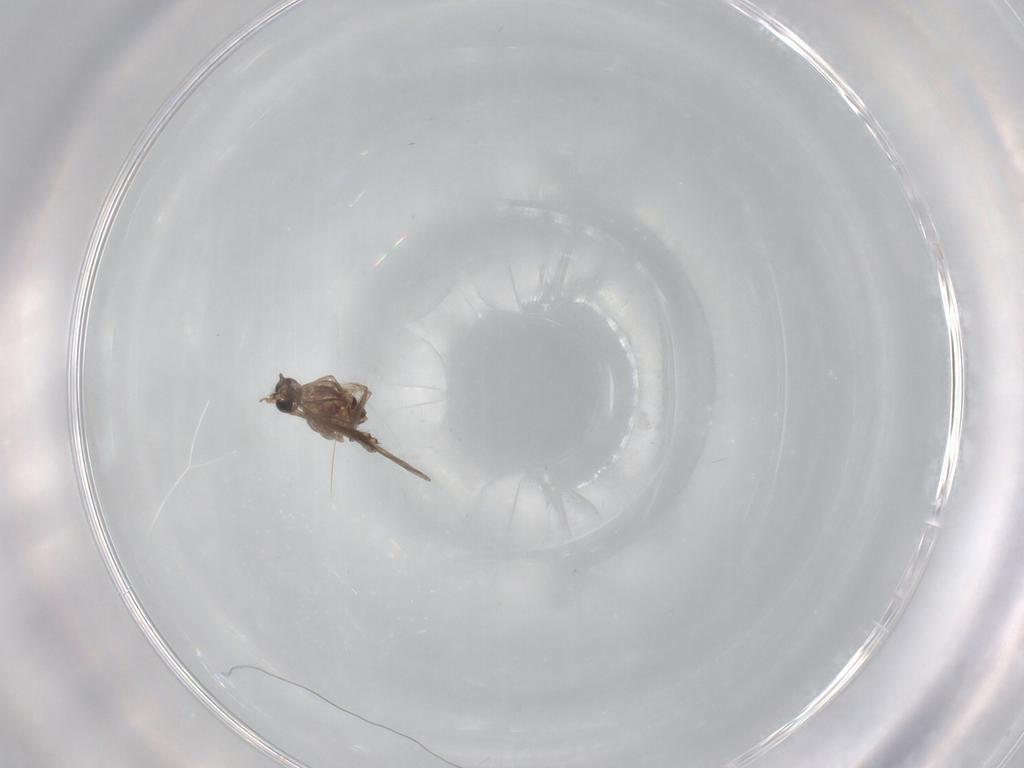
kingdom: Animalia
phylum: Arthropoda
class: Insecta
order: Diptera
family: Chironomidae
